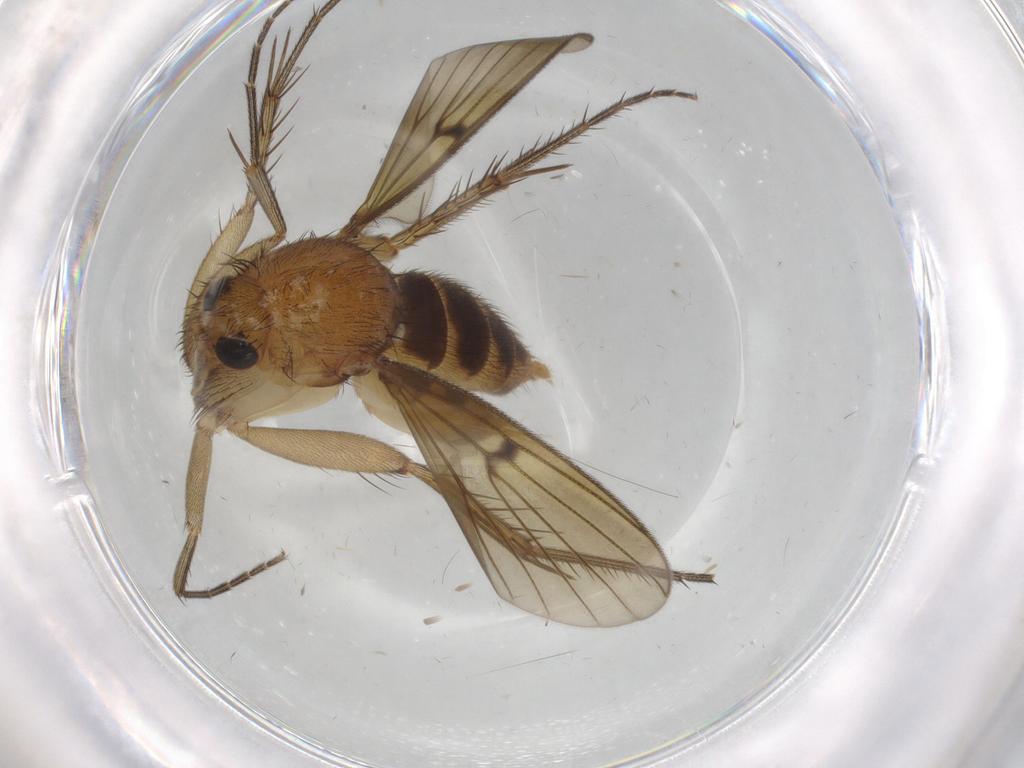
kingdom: Animalia
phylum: Arthropoda
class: Insecta
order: Diptera
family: Mycetophilidae
